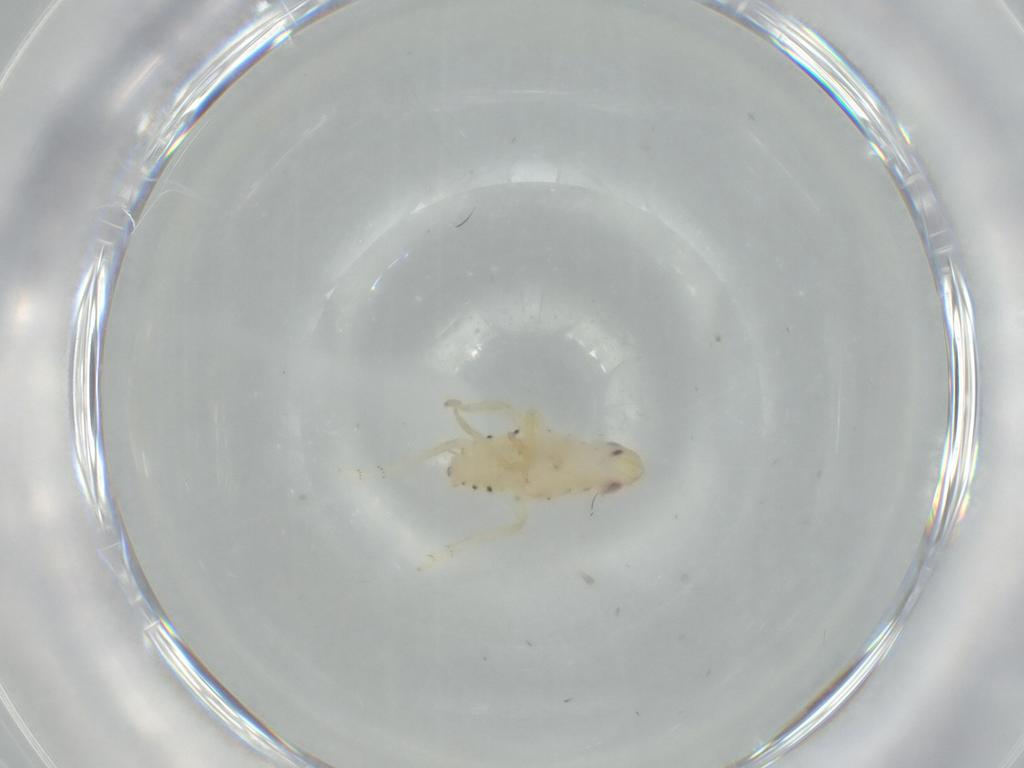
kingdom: Animalia
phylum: Arthropoda
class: Insecta
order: Hemiptera
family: Tropiduchidae
